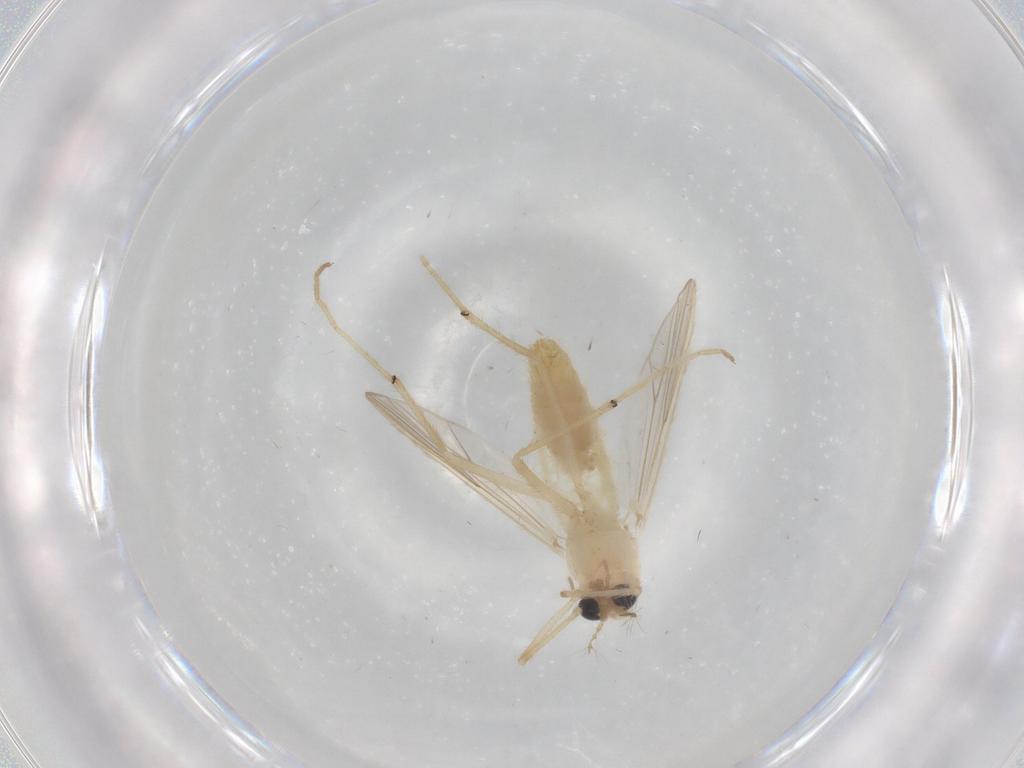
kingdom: Animalia
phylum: Arthropoda
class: Insecta
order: Diptera
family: Chironomidae
